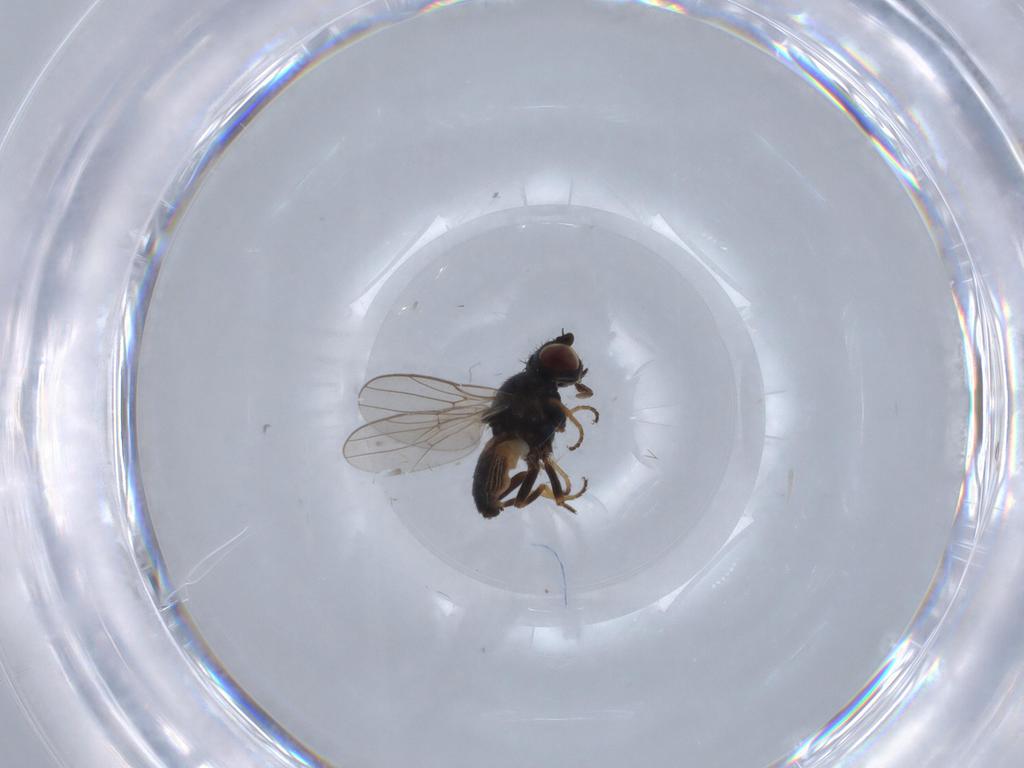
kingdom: Animalia
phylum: Arthropoda
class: Insecta
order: Diptera
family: Chloropidae
